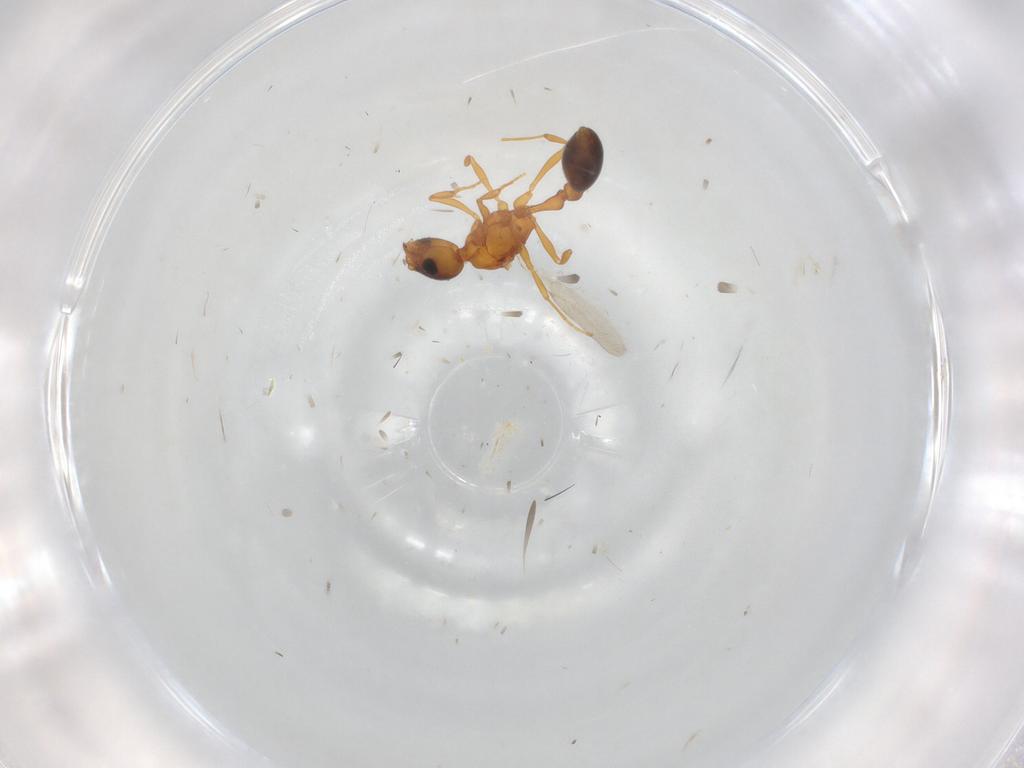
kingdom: Animalia
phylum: Arthropoda
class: Insecta
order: Hymenoptera
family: Formicidae
